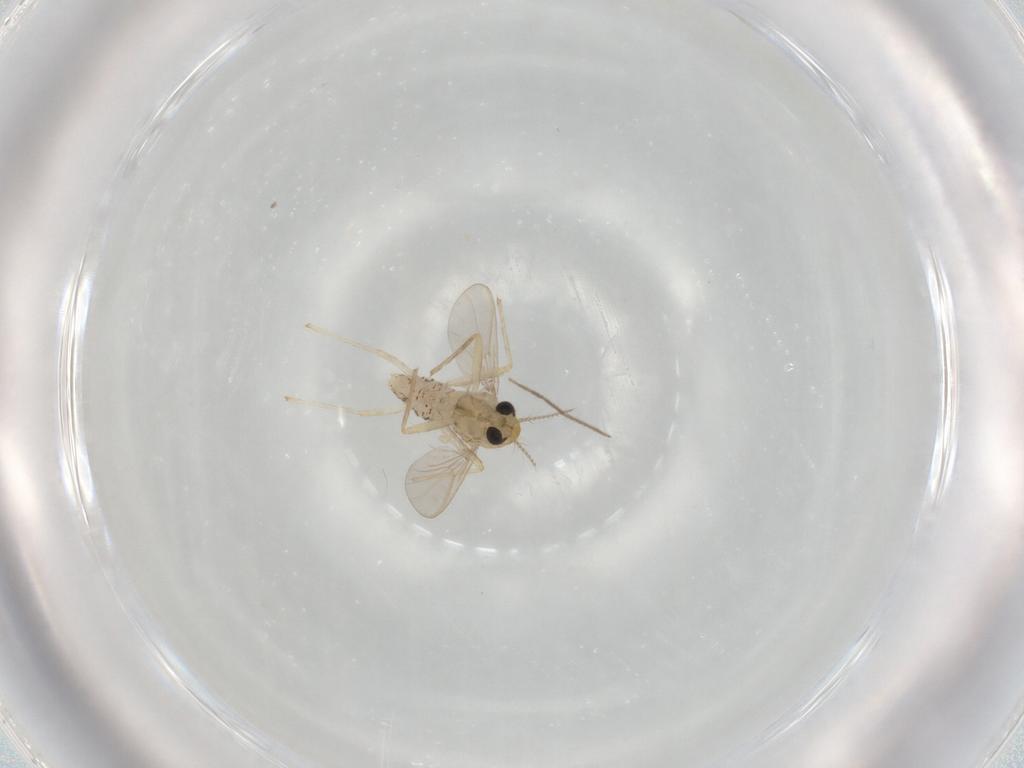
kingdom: Animalia
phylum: Arthropoda
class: Insecta
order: Diptera
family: Chironomidae
